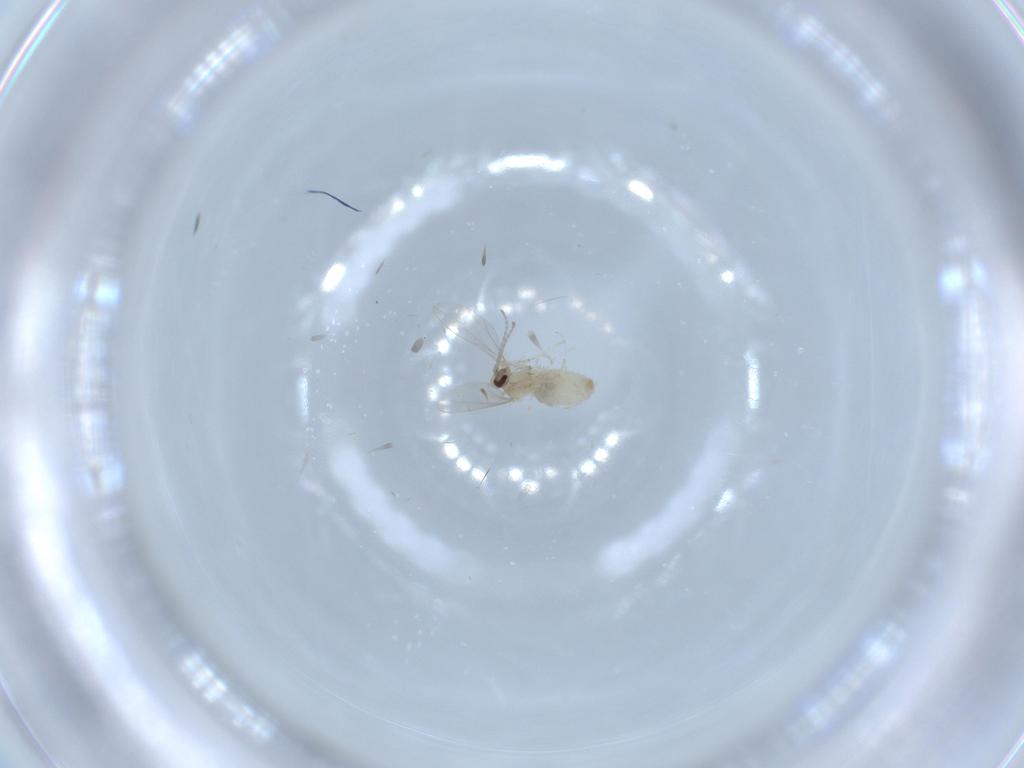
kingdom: Animalia
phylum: Arthropoda
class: Insecta
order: Diptera
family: Cecidomyiidae
